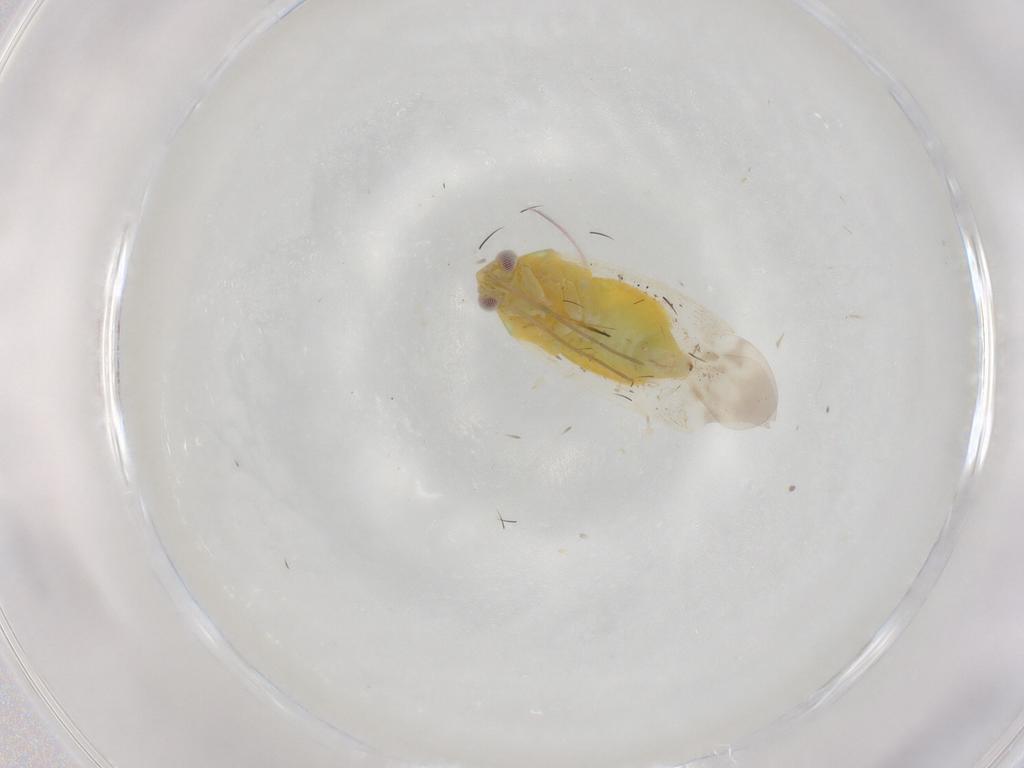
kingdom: Animalia
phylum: Arthropoda
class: Insecta
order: Hemiptera
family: Miridae
